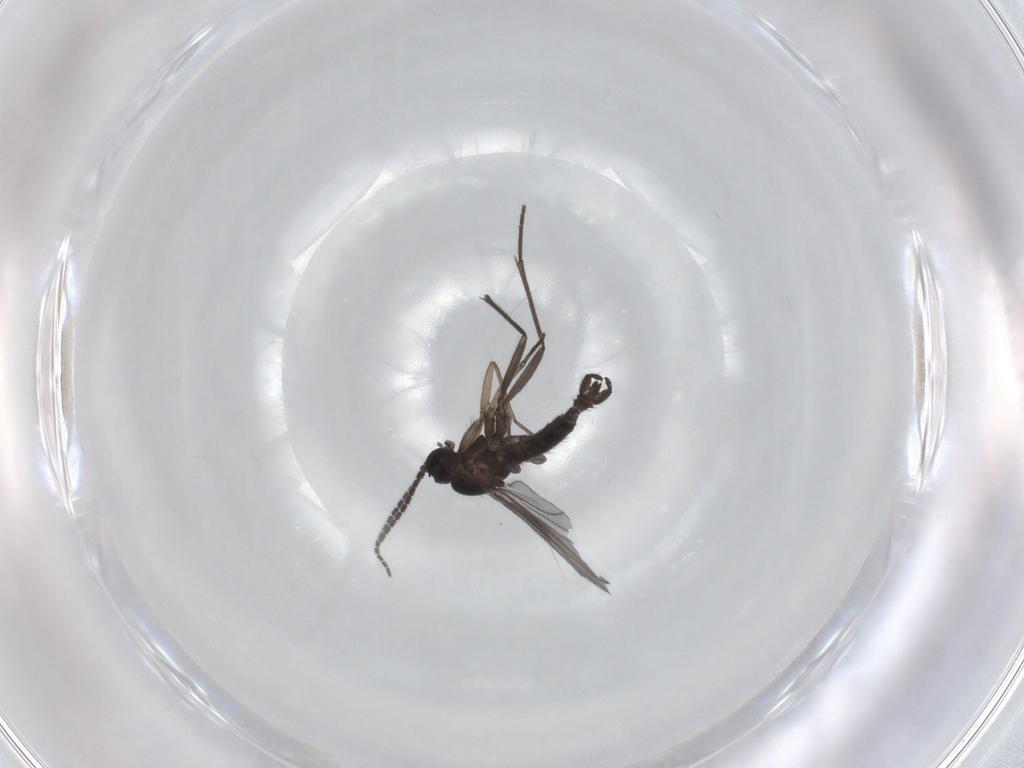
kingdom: Animalia
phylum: Arthropoda
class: Insecta
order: Diptera
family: Sciaridae
